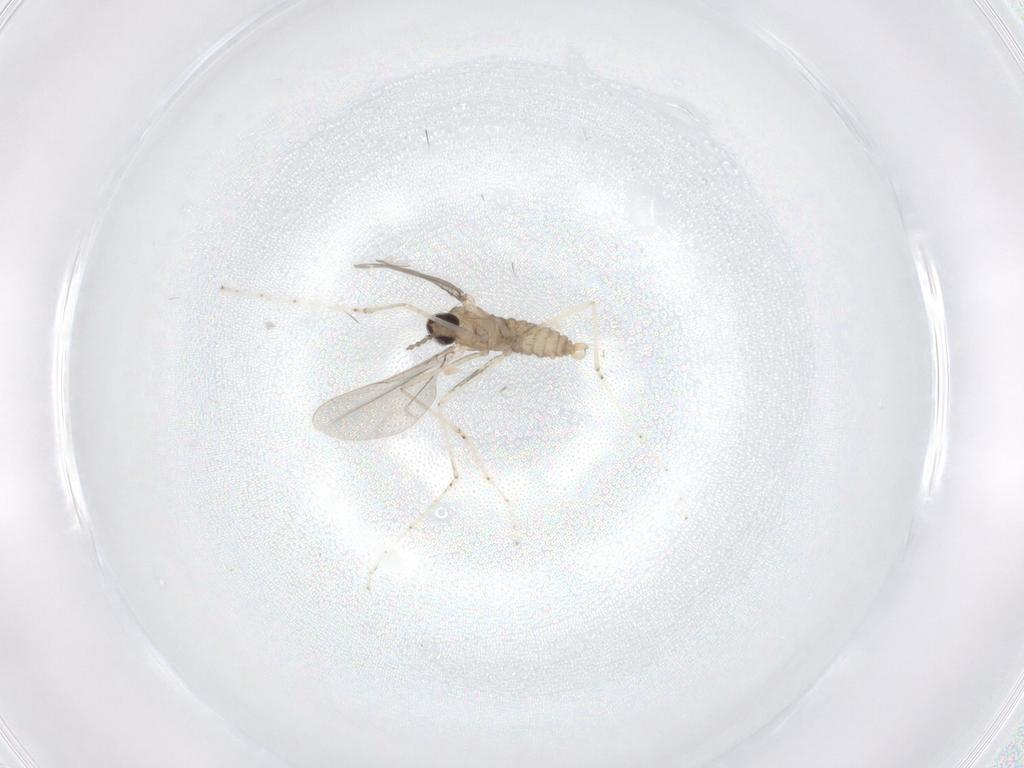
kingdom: Animalia
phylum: Arthropoda
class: Insecta
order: Diptera
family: Cecidomyiidae
